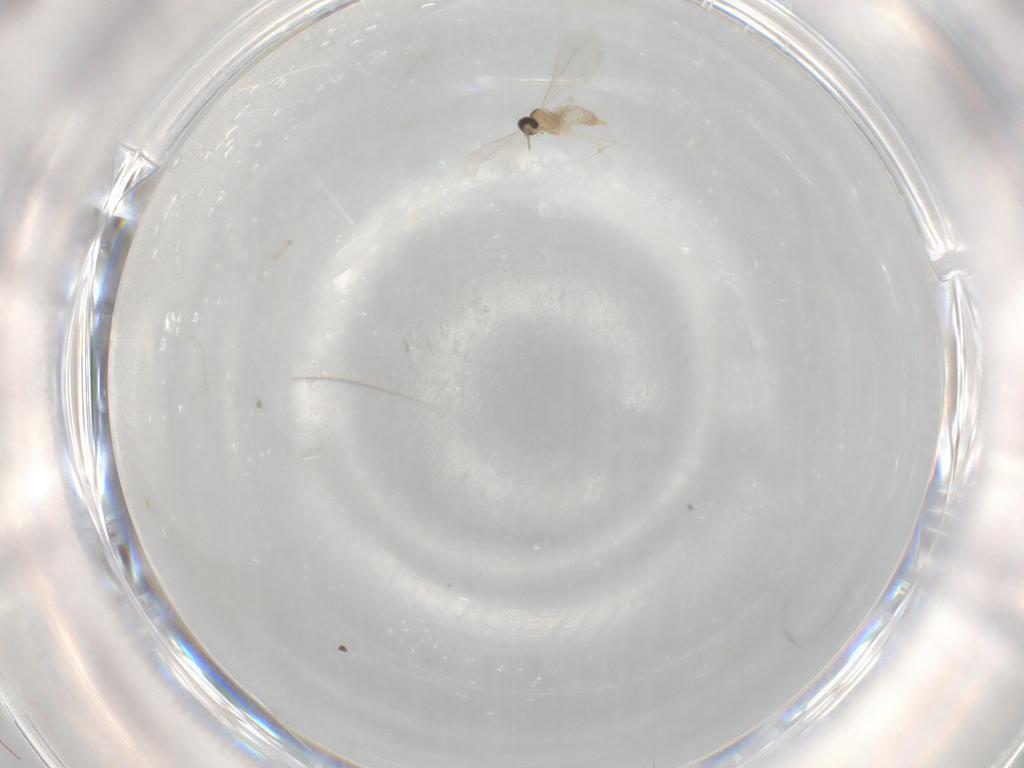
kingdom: Animalia
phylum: Arthropoda
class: Insecta
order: Diptera
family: Cecidomyiidae
